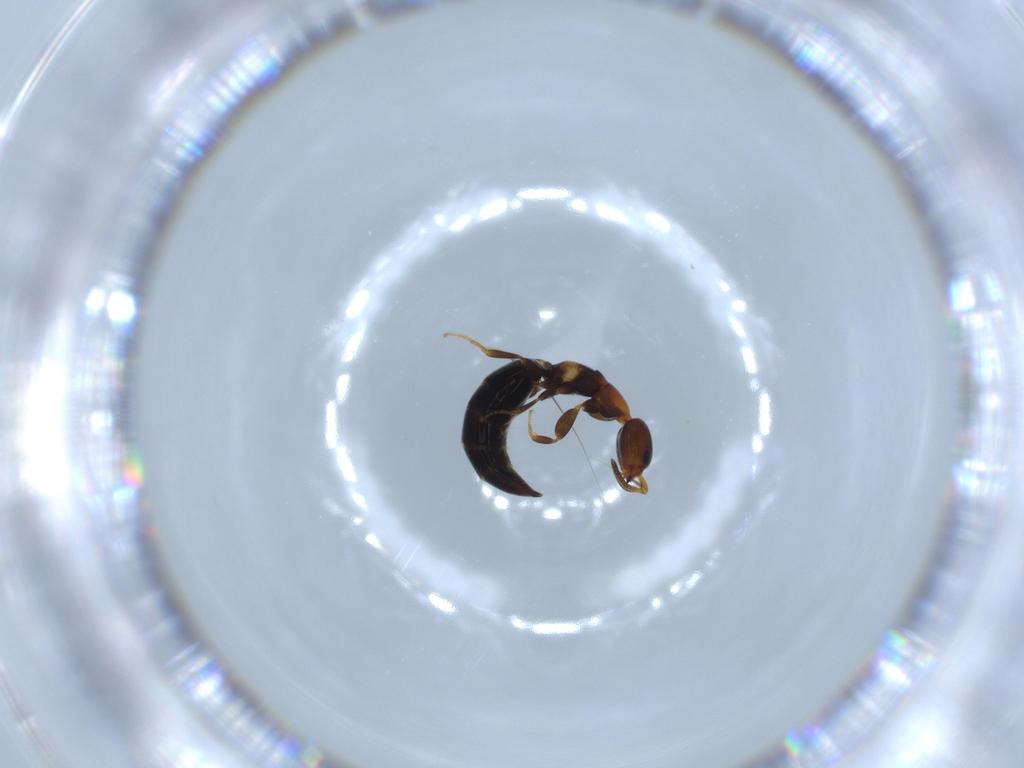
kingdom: Animalia
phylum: Arthropoda
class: Insecta
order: Hymenoptera
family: Bethylidae
